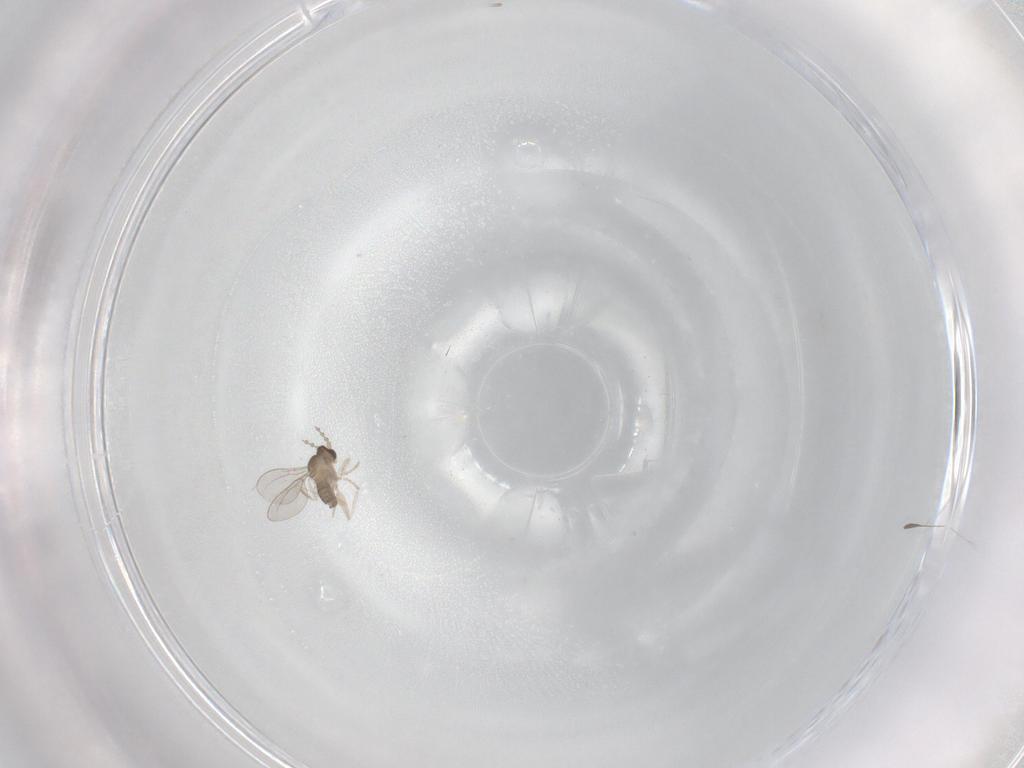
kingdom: Animalia
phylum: Arthropoda
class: Insecta
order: Diptera
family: Cecidomyiidae
